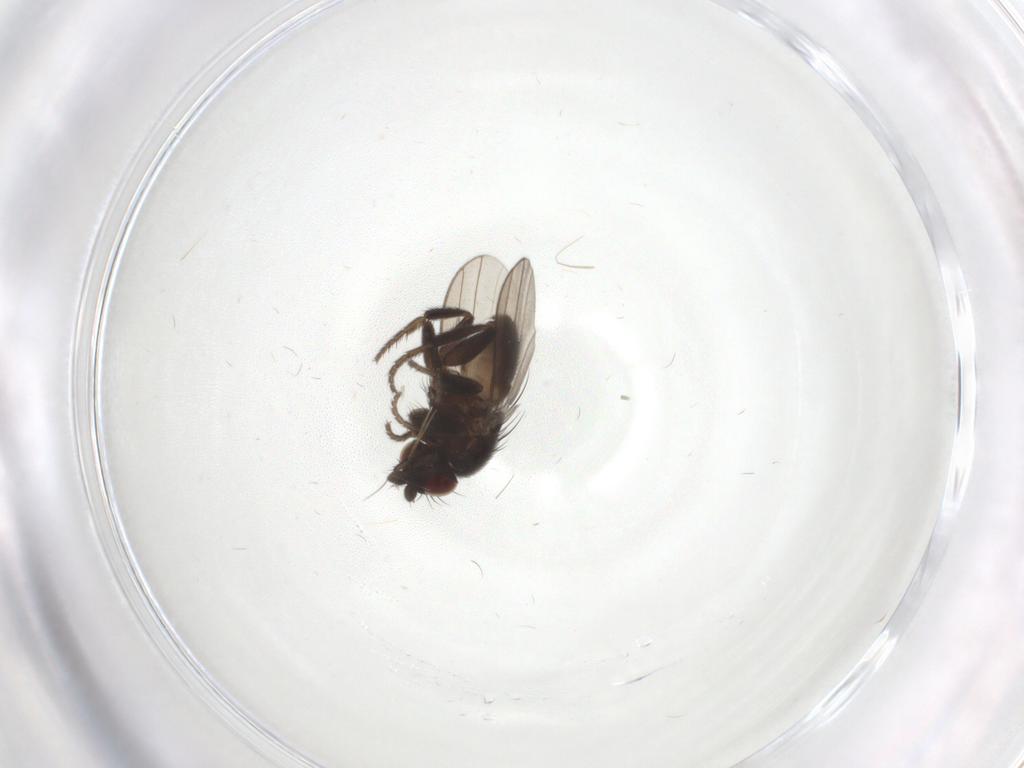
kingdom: Animalia
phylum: Arthropoda
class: Insecta
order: Diptera
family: Milichiidae
